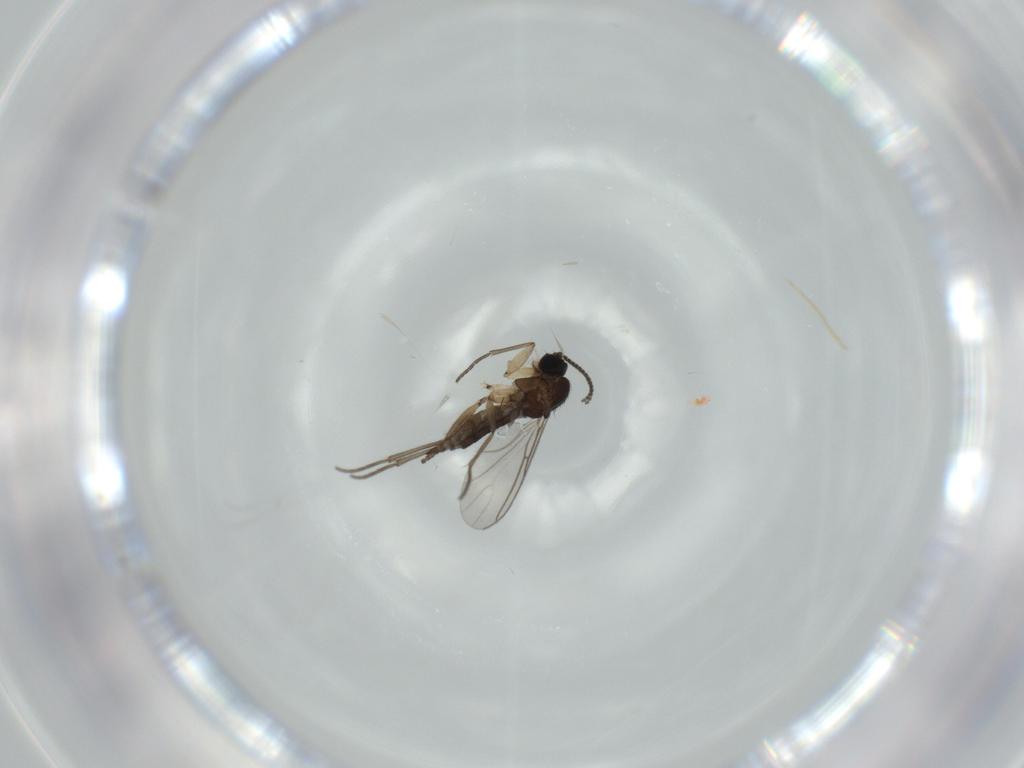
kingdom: Animalia
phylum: Arthropoda
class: Insecta
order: Diptera
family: Sciaridae
